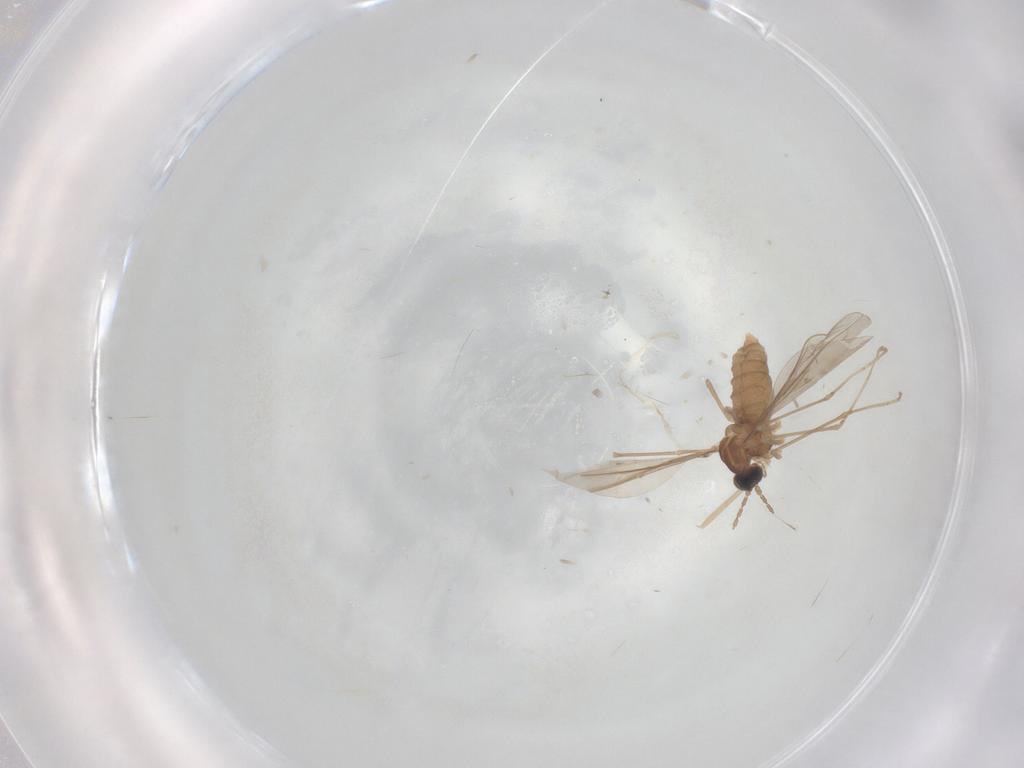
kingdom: Animalia
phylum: Arthropoda
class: Insecta
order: Diptera
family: Cecidomyiidae
